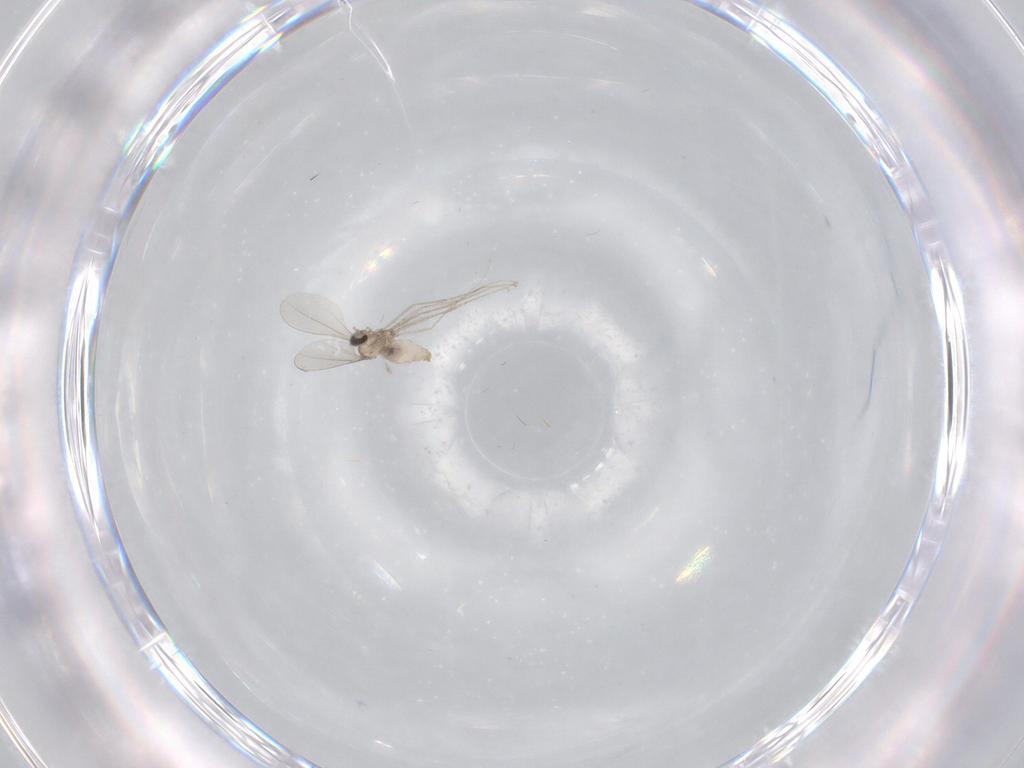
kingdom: Animalia
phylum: Arthropoda
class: Insecta
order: Diptera
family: Cecidomyiidae
